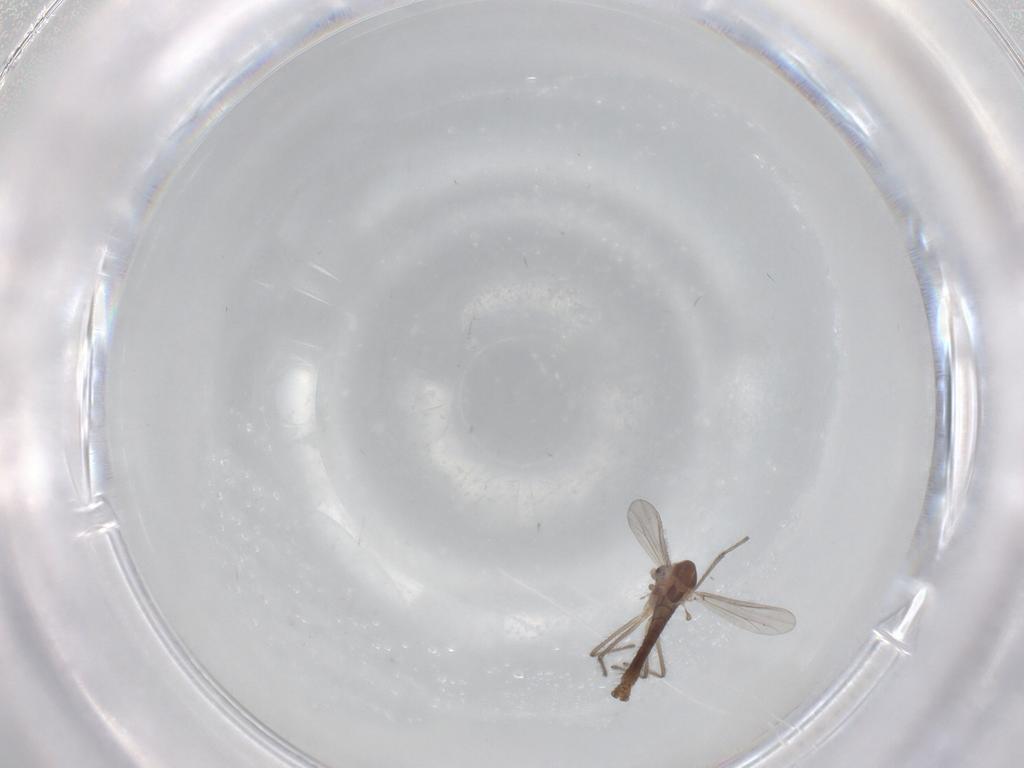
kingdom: Animalia
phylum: Arthropoda
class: Insecta
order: Diptera
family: Chironomidae
